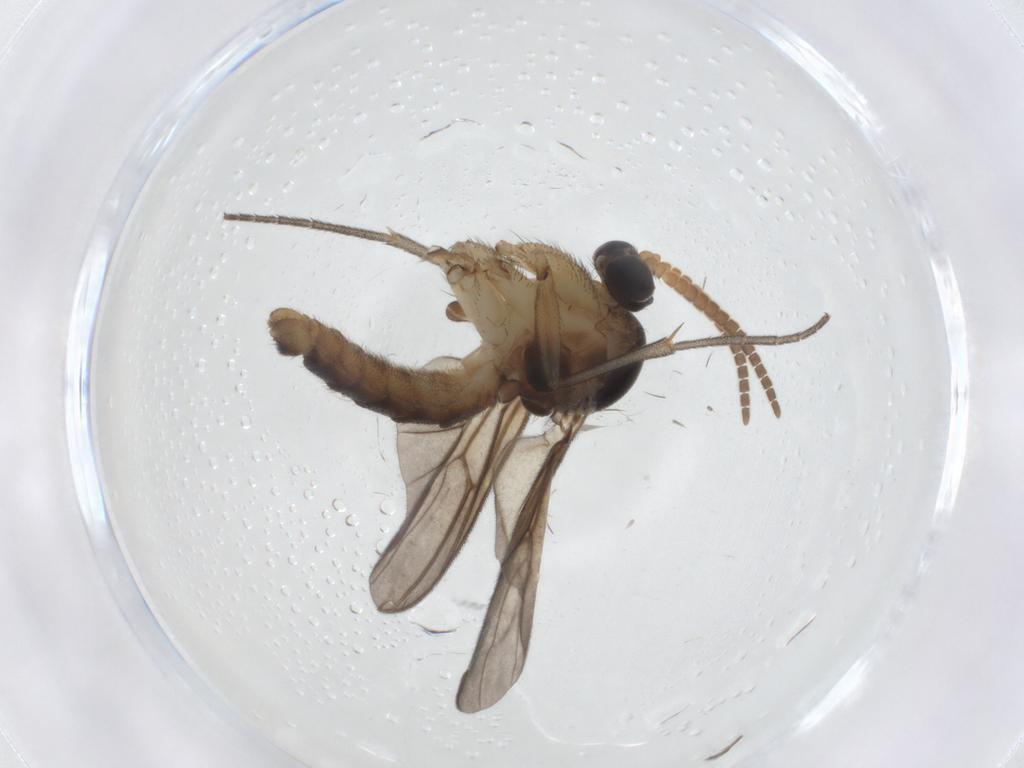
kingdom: Animalia
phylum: Arthropoda
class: Insecta
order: Diptera
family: Mycetophilidae
